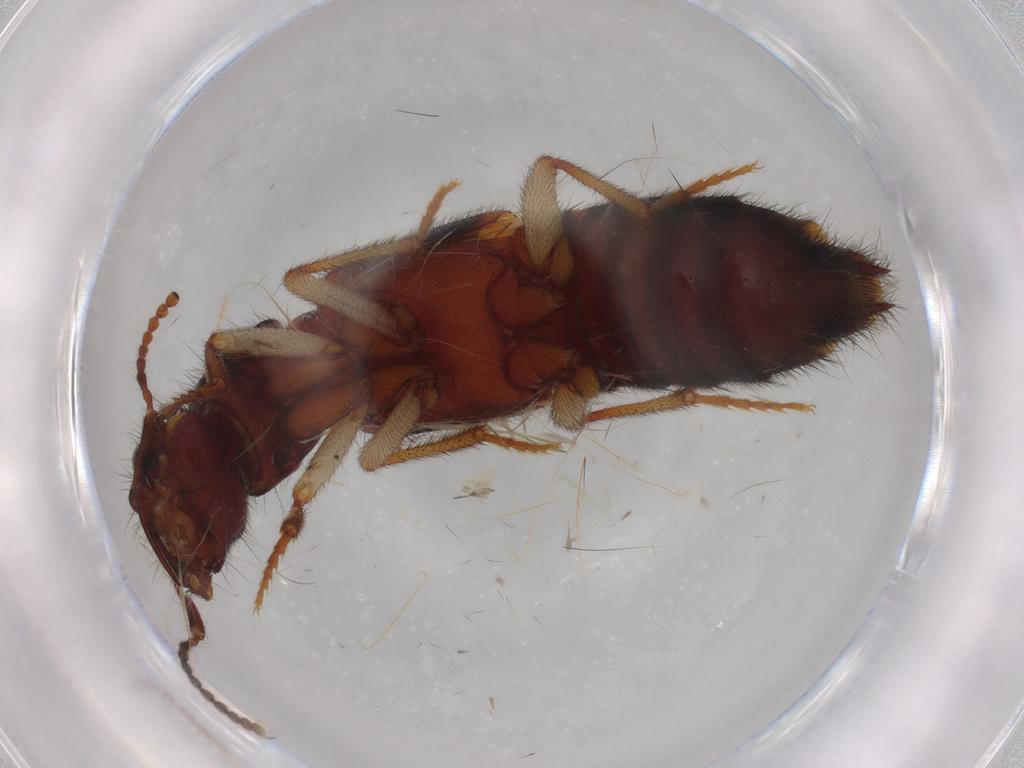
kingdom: Animalia
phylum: Arthropoda
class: Insecta
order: Coleoptera
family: Staphylinidae
